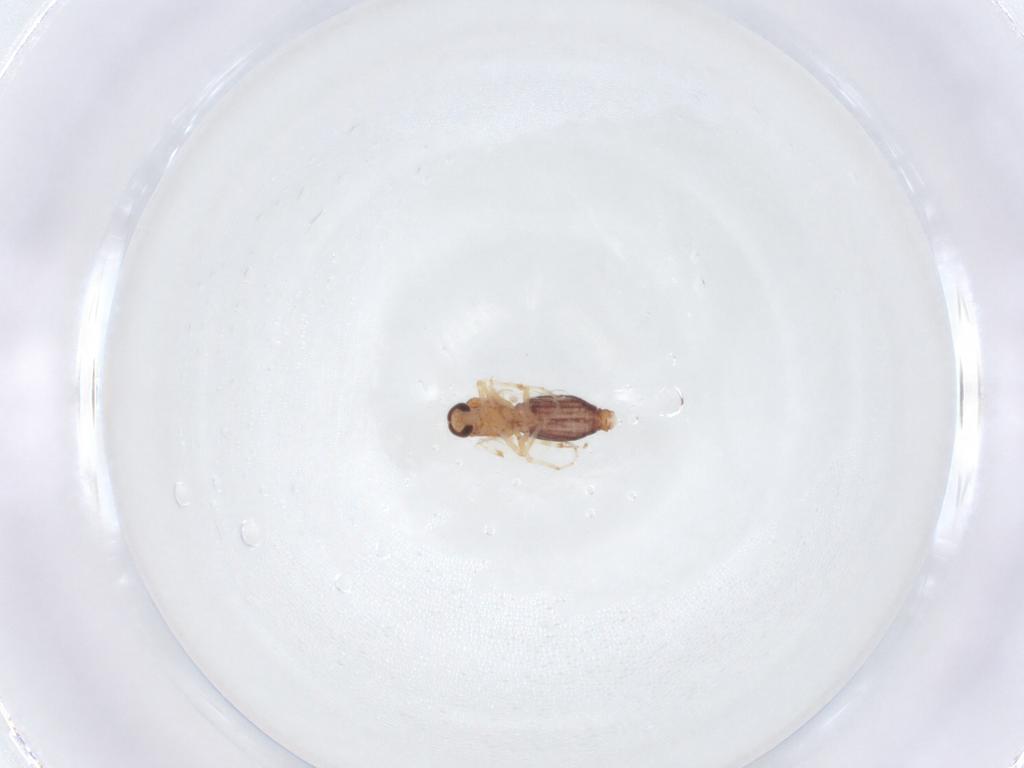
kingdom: Animalia
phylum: Arthropoda
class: Insecta
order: Diptera
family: Ceratopogonidae
